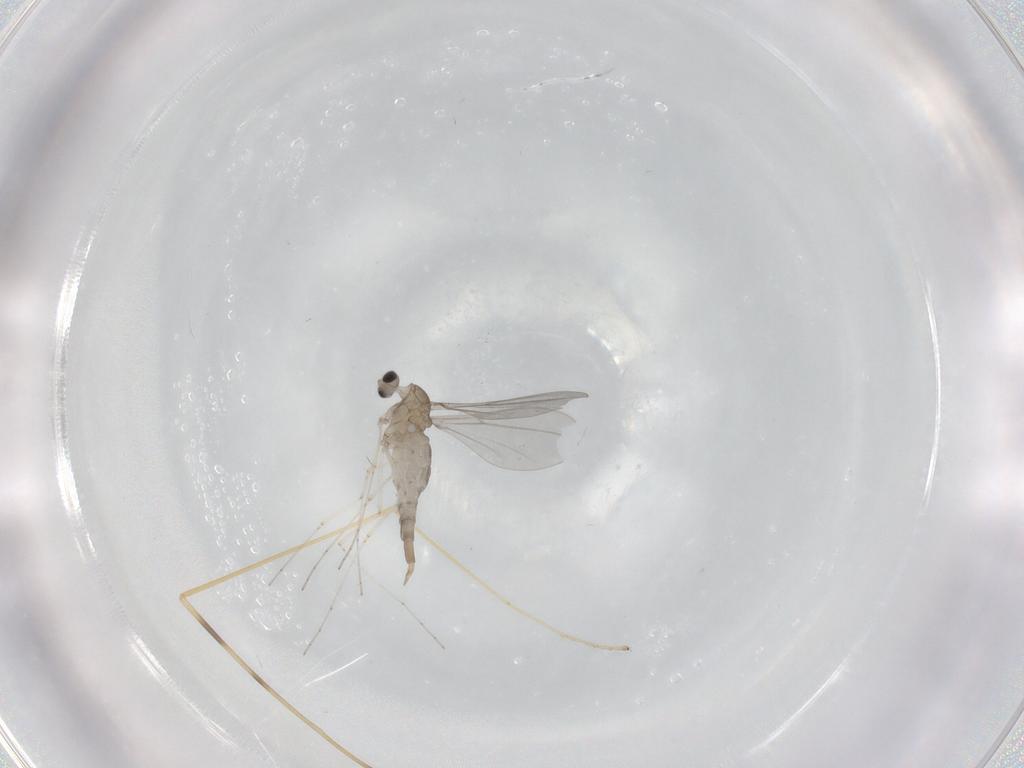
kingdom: Animalia
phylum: Arthropoda
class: Insecta
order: Diptera
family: Cecidomyiidae
